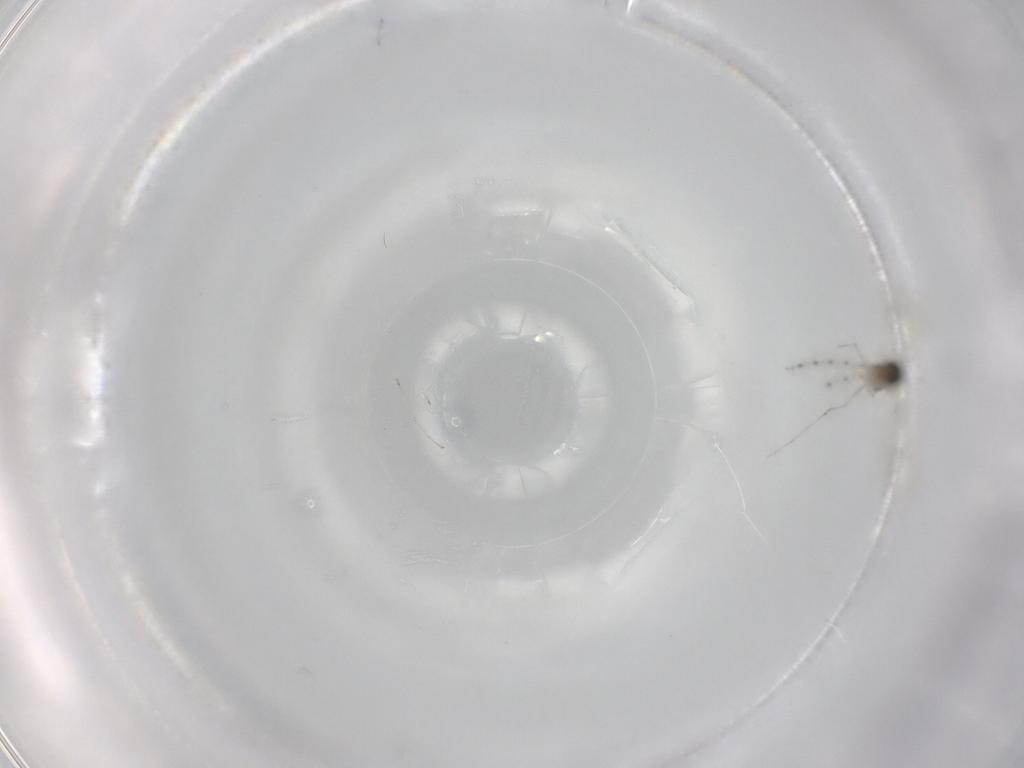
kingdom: Animalia
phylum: Arthropoda
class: Insecta
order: Diptera
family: Cecidomyiidae
